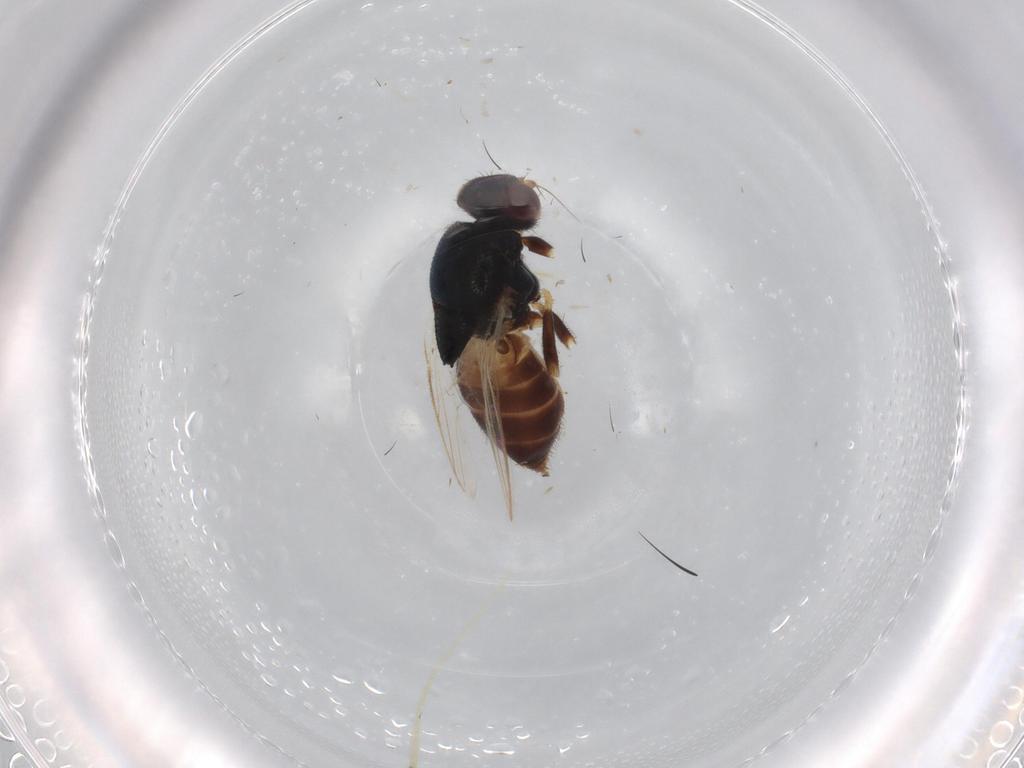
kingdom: Animalia
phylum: Arthropoda
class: Insecta
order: Diptera
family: Chloropidae
